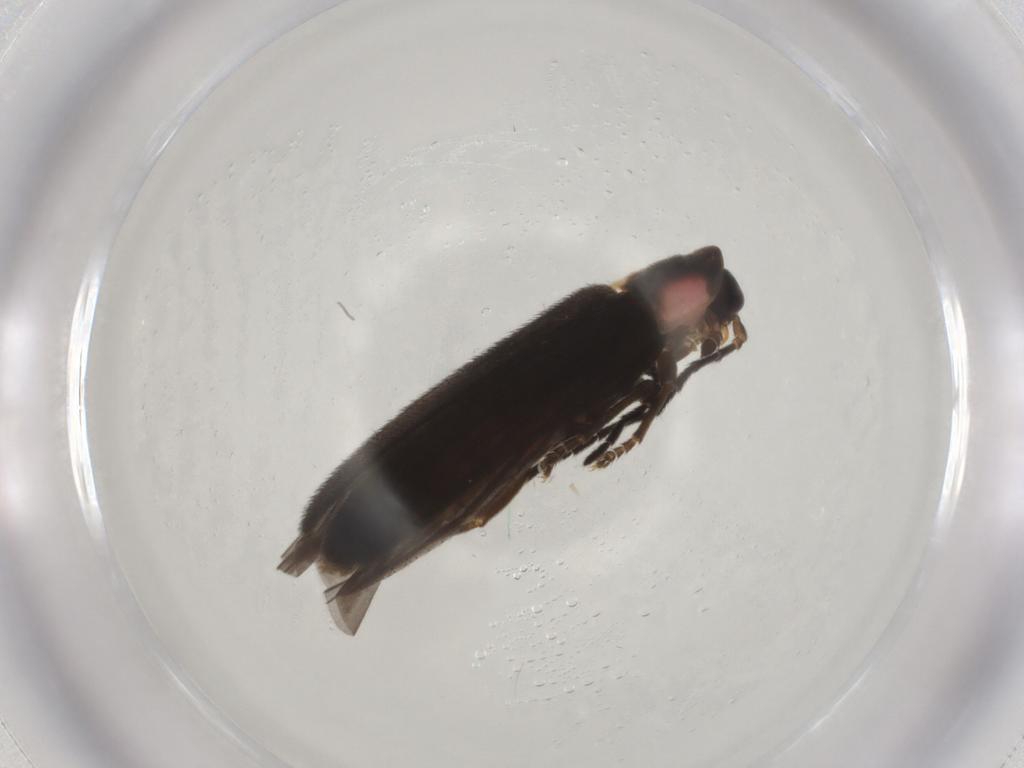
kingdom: Animalia
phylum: Arthropoda
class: Insecta
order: Coleoptera
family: Lampyridae
